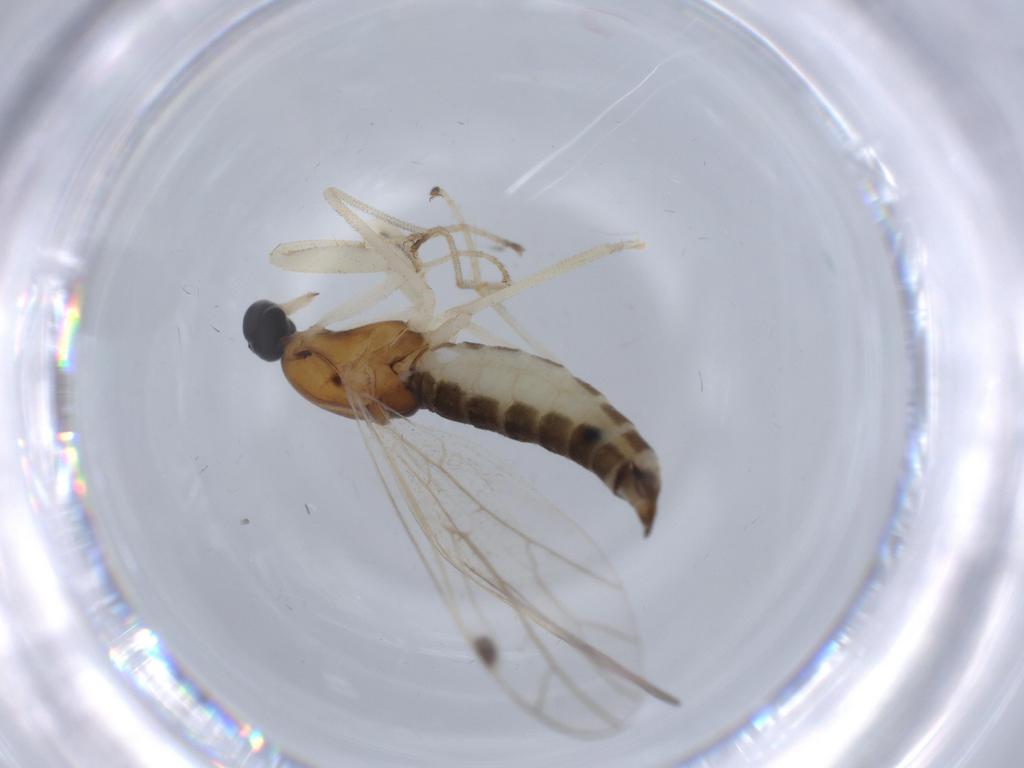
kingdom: Animalia
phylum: Arthropoda
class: Insecta
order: Diptera
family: Empididae
